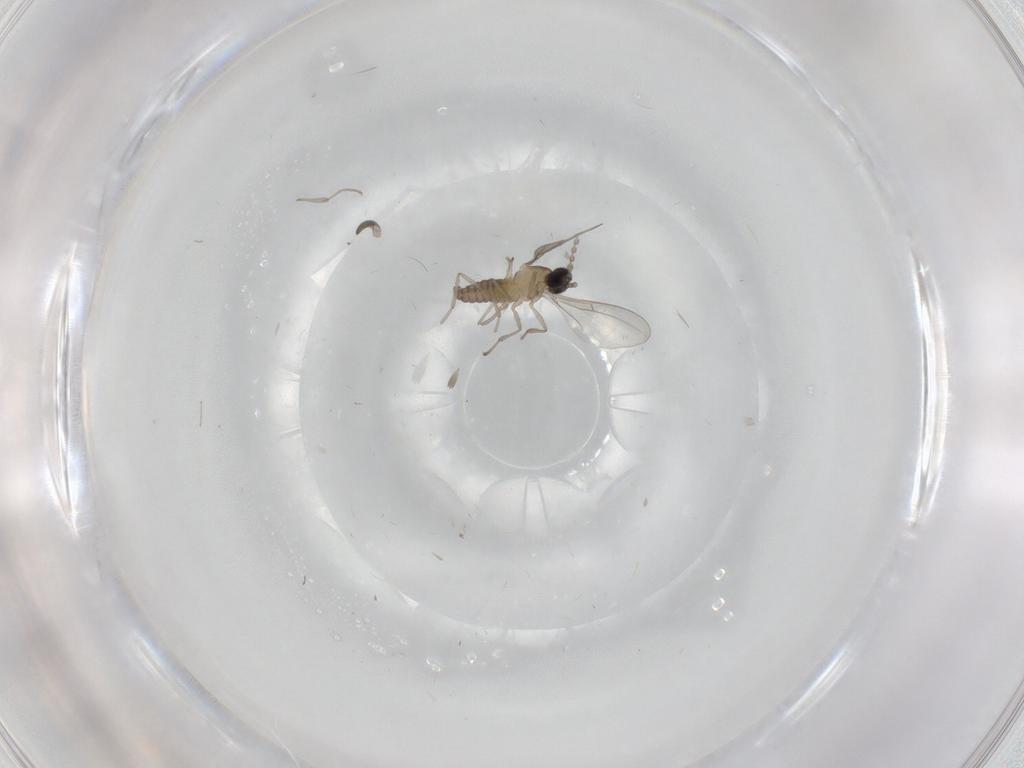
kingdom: Animalia
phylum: Arthropoda
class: Insecta
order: Diptera
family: Cecidomyiidae
